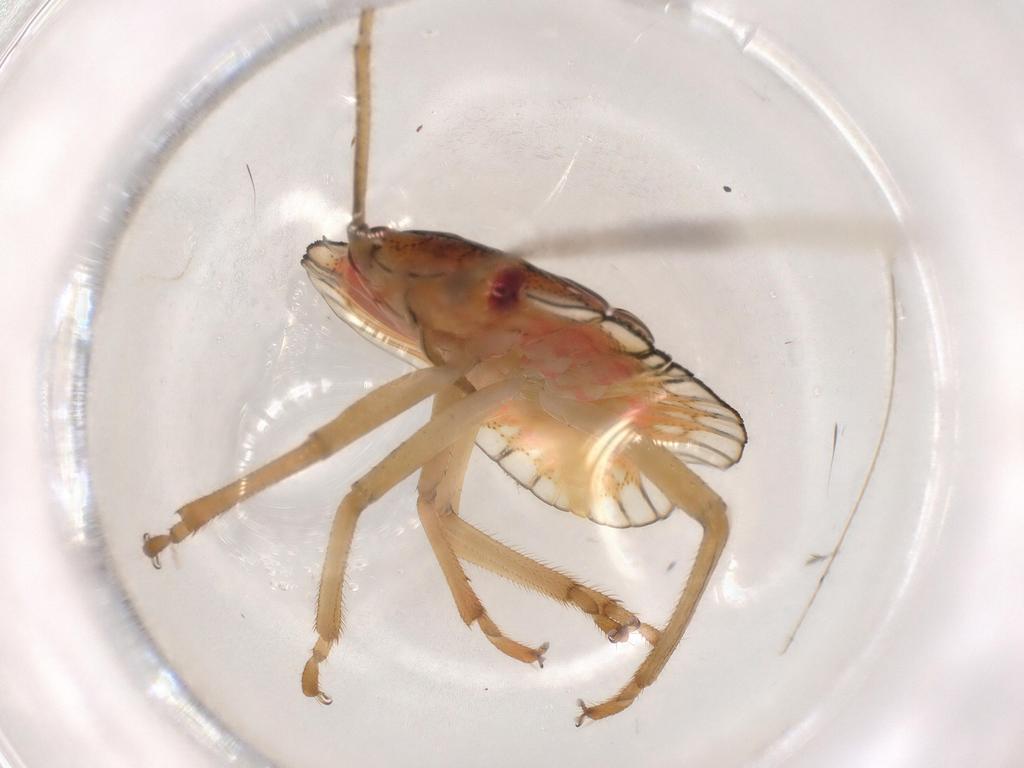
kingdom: Animalia
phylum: Arthropoda
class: Insecta
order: Hemiptera
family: Pentatomidae
